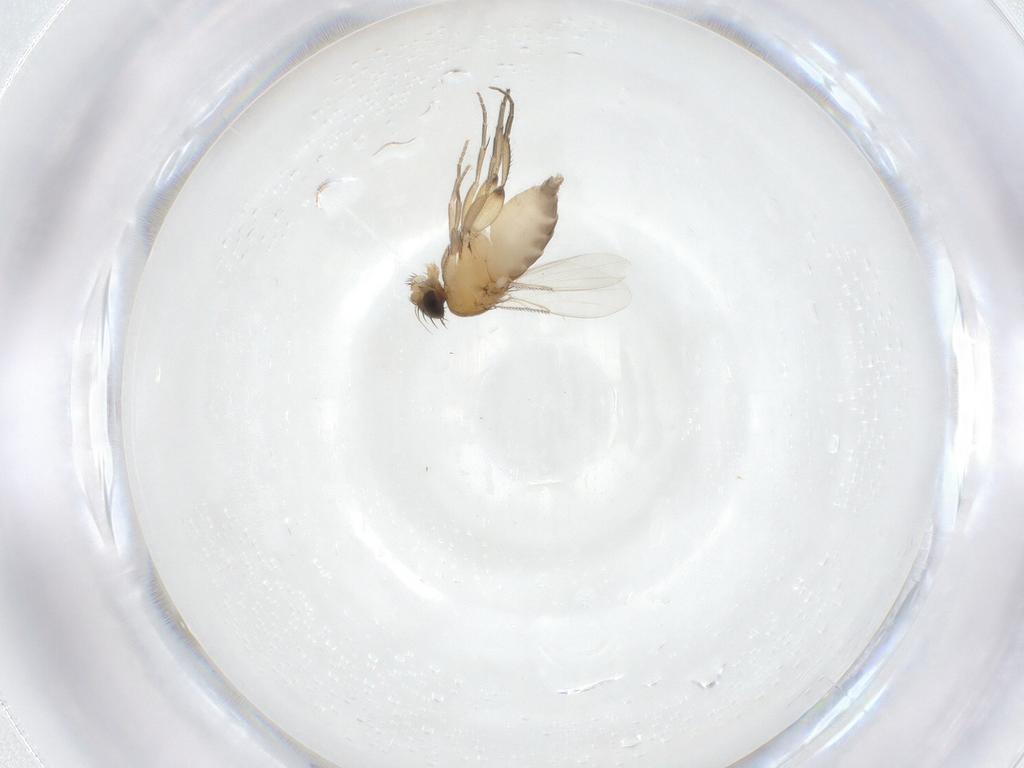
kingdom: Animalia
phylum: Arthropoda
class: Insecta
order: Diptera
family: Phoridae
